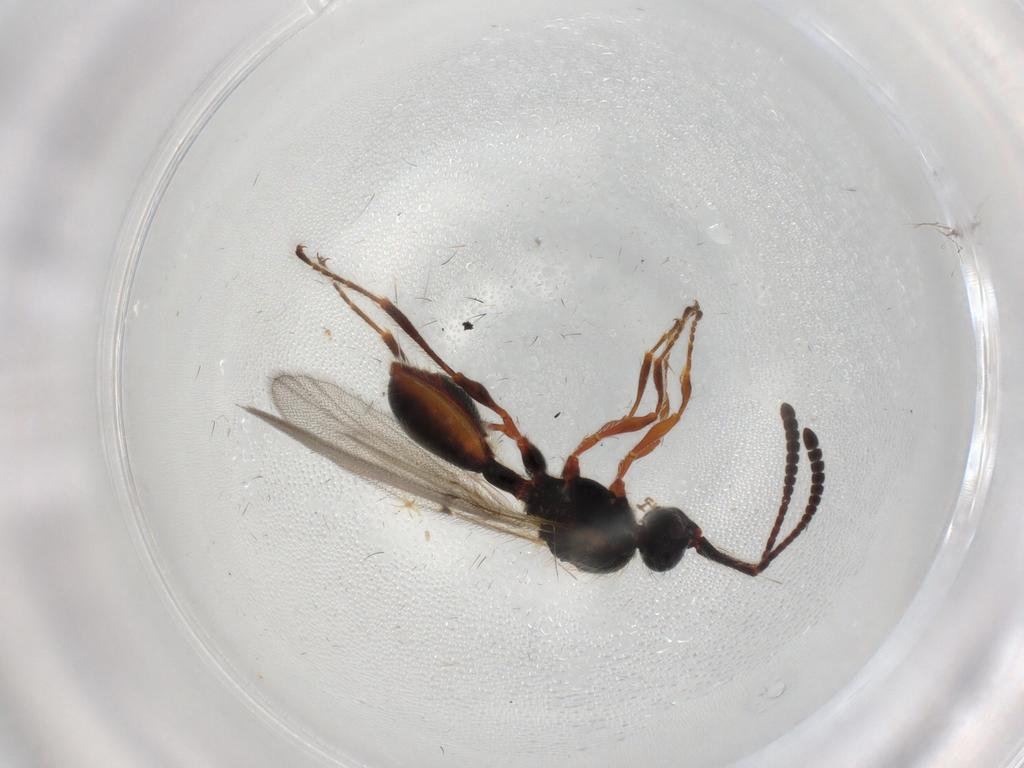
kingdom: Animalia
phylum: Arthropoda
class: Insecta
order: Hymenoptera
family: Diapriidae
